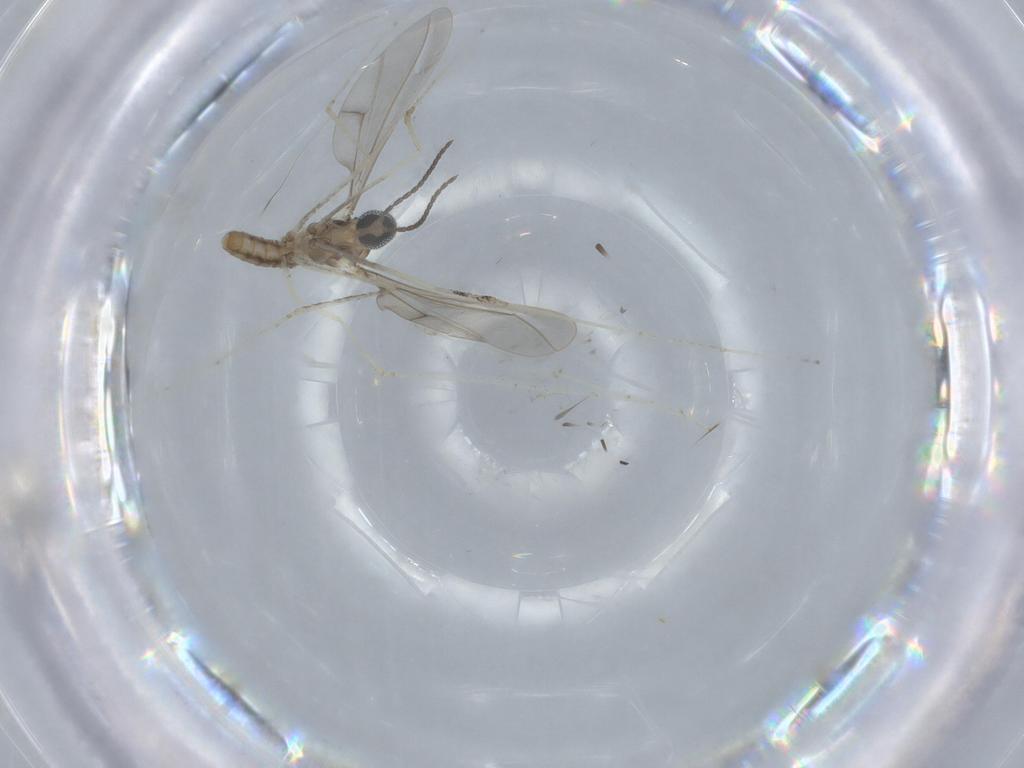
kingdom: Animalia
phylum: Arthropoda
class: Insecta
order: Diptera
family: Cecidomyiidae
